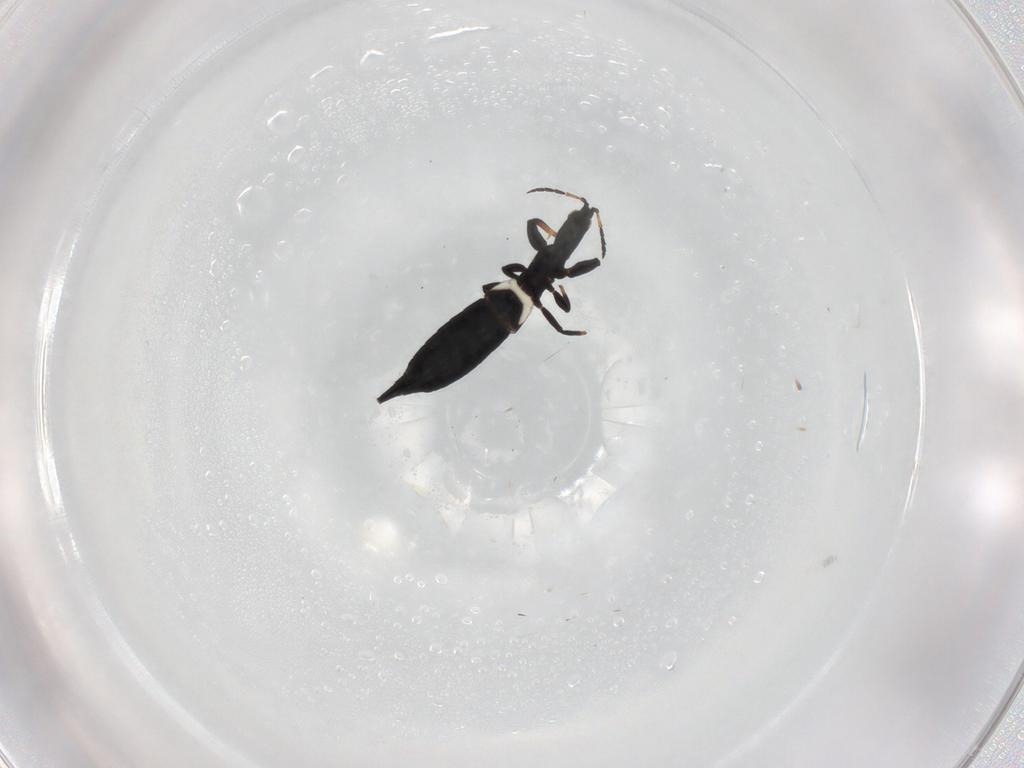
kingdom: Animalia
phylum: Arthropoda
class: Insecta
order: Thysanoptera
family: Phlaeothripidae
